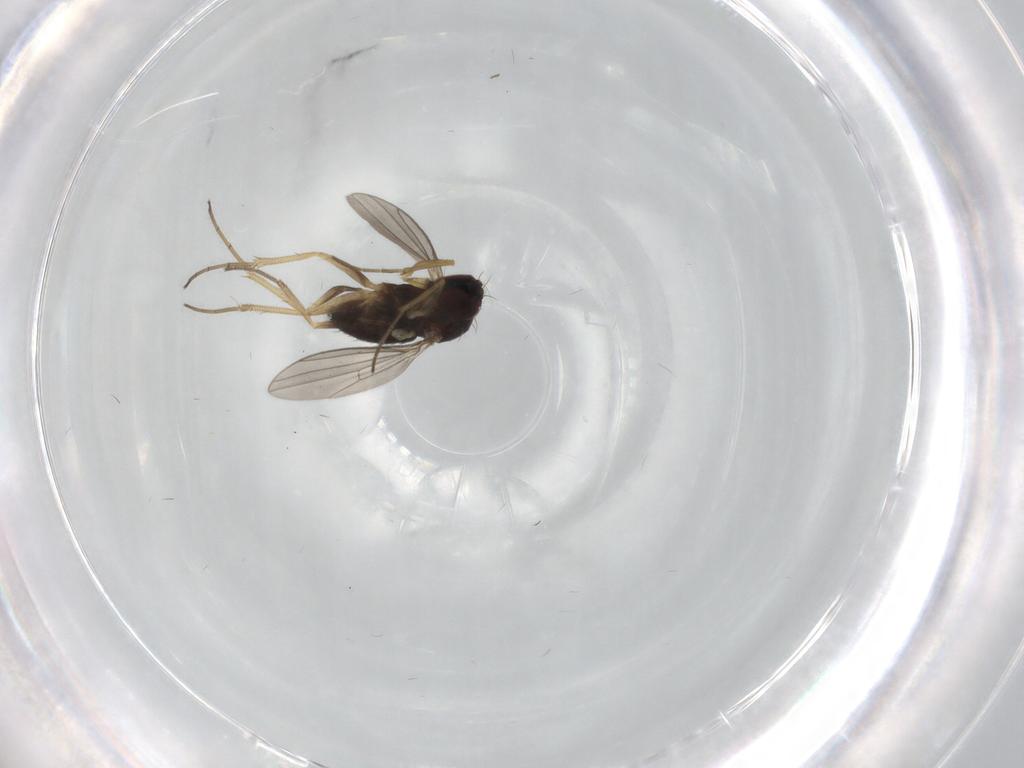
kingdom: Animalia
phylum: Arthropoda
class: Insecta
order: Diptera
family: Dolichopodidae
